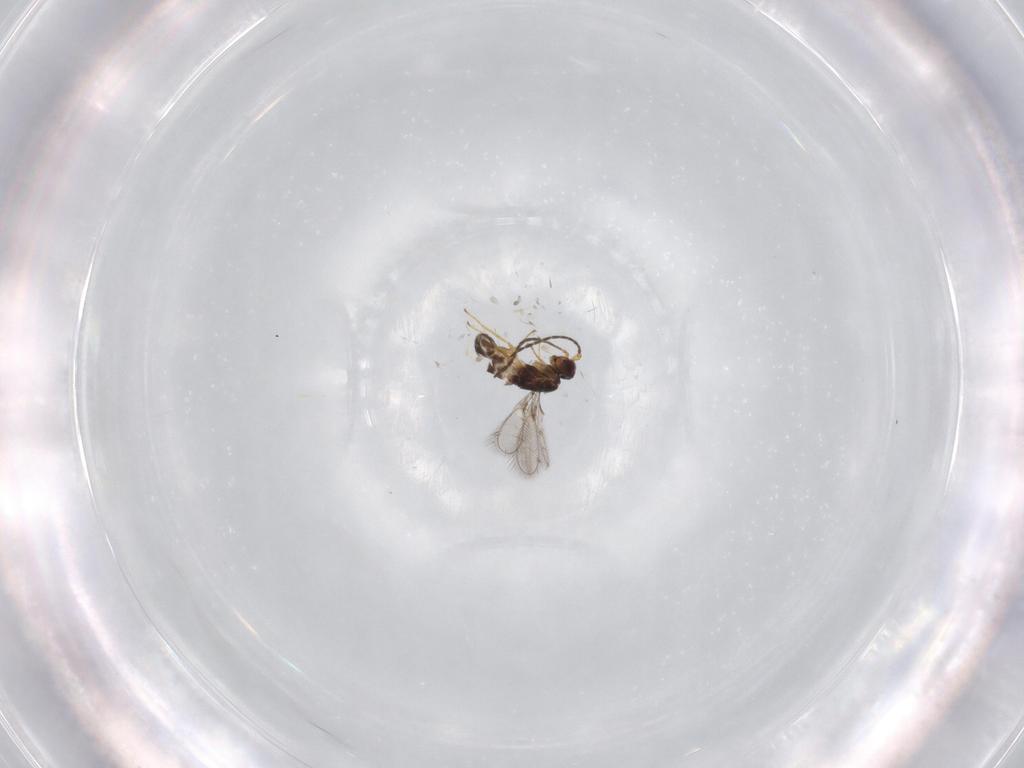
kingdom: Animalia
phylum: Arthropoda
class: Insecta
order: Hymenoptera
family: Mymaridae
